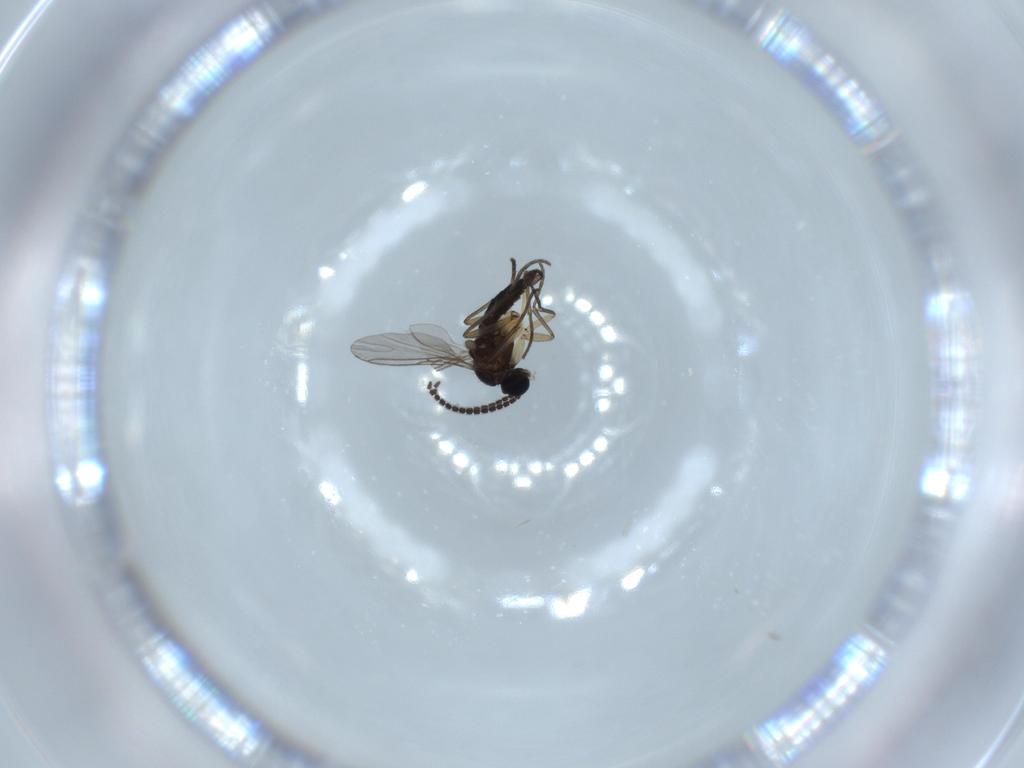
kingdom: Animalia
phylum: Arthropoda
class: Insecta
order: Diptera
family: Sciaridae
